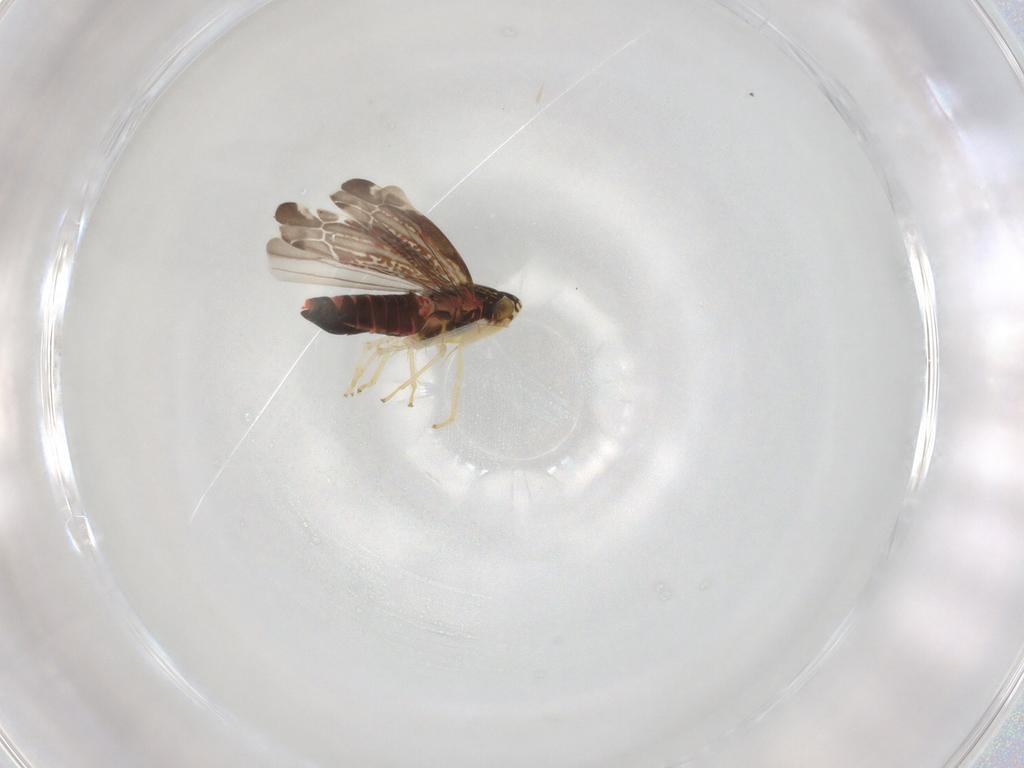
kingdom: Animalia
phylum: Arthropoda
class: Insecta
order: Hemiptera
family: Cicadellidae
